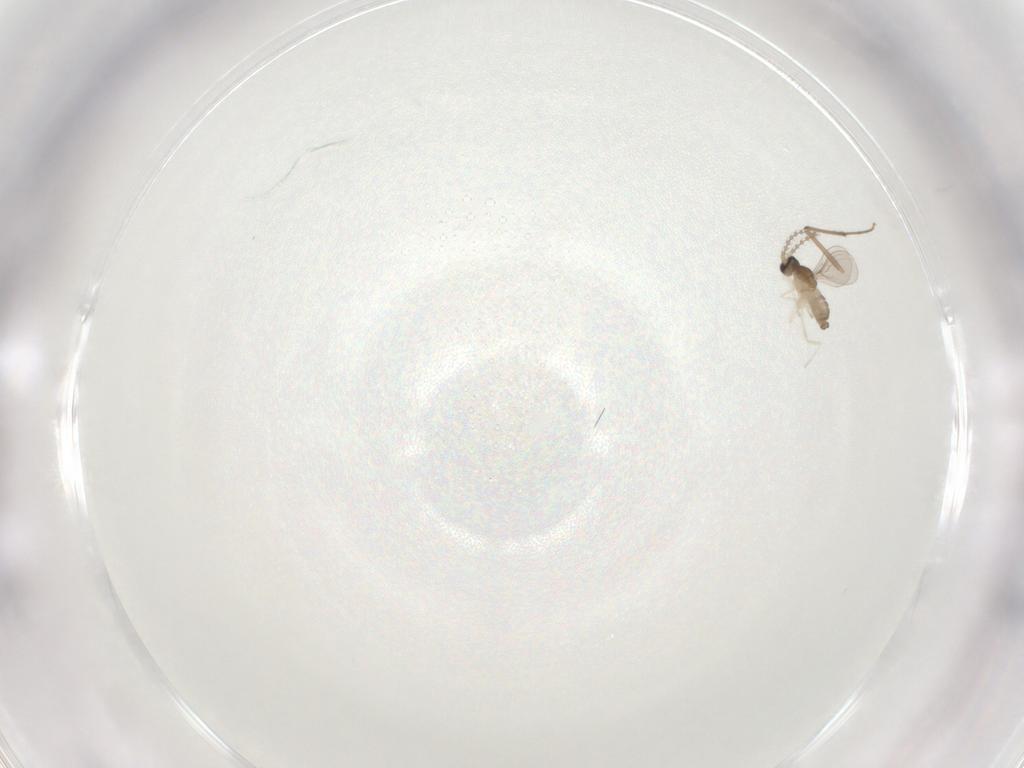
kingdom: Animalia
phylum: Arthropoda
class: Insecta
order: Diptera
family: Cecidomyiidae
